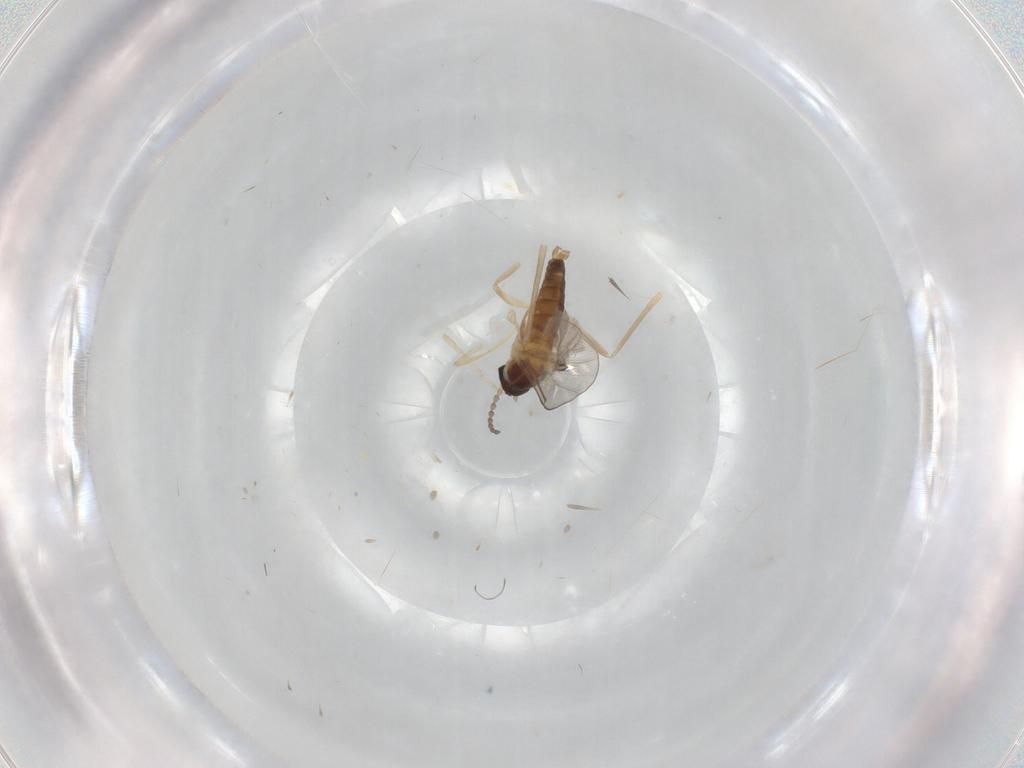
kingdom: Animalia
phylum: Arthropoda
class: Insecta
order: Diptera
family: Cecidomyiidae
